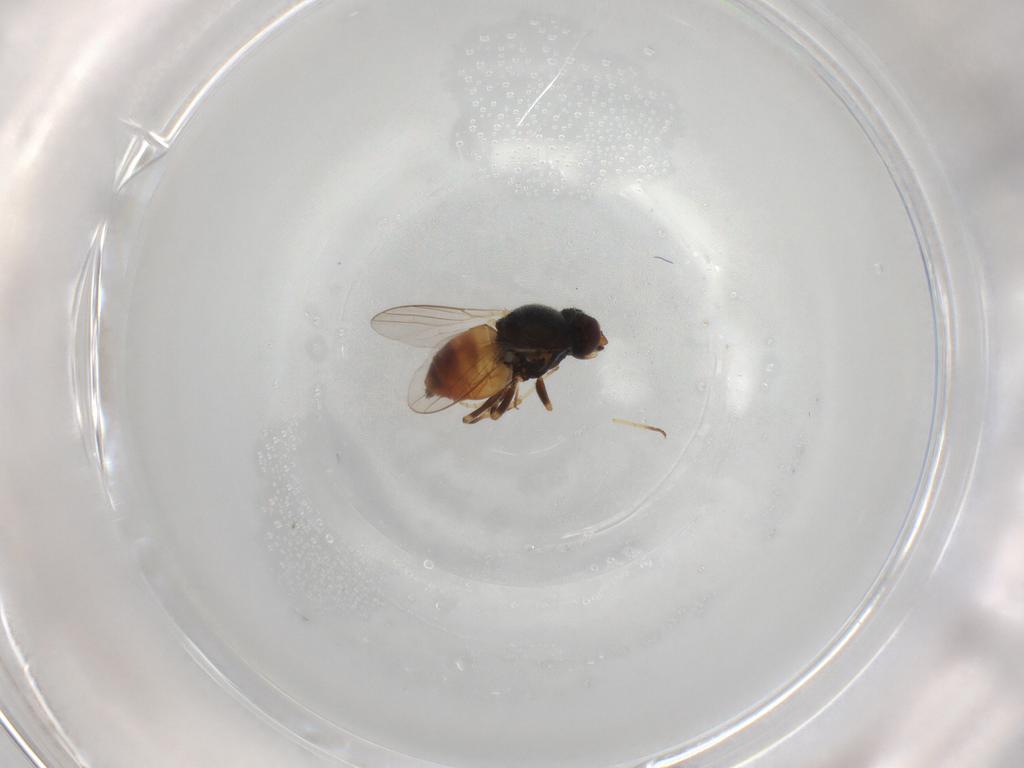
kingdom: Animalia
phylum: Arthropoda
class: Insecta
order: Diptera
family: Chloropidae
